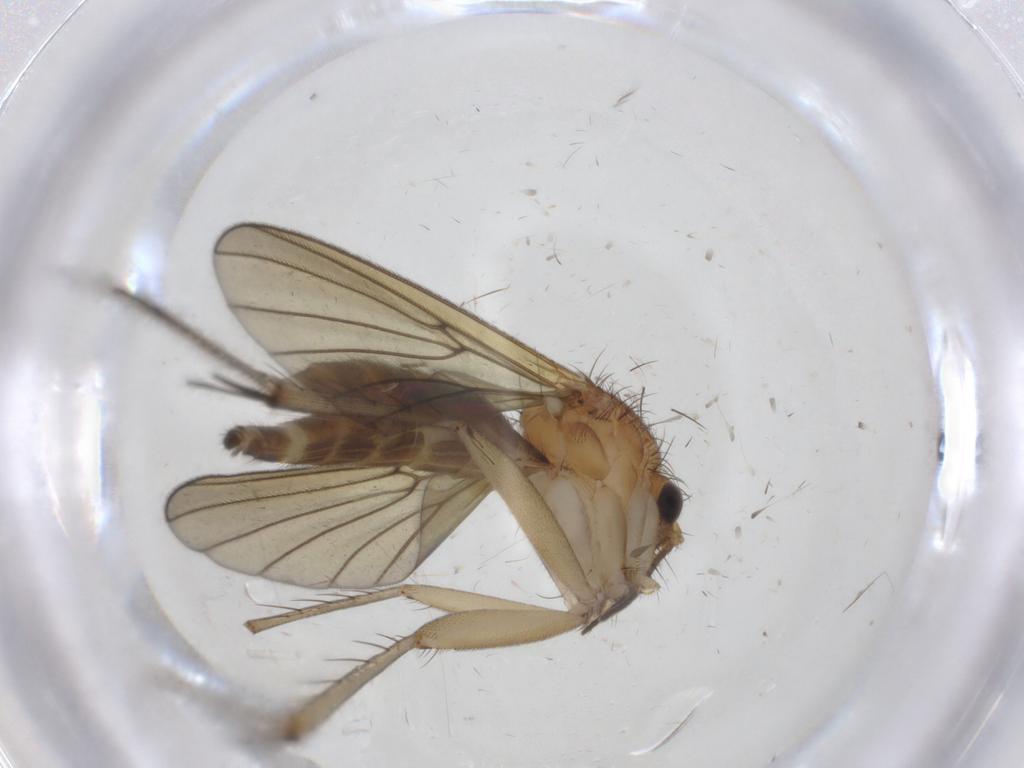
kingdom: Animalia
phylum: Arthropoda
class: Insecta
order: Diptera
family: Mycetophilidae
